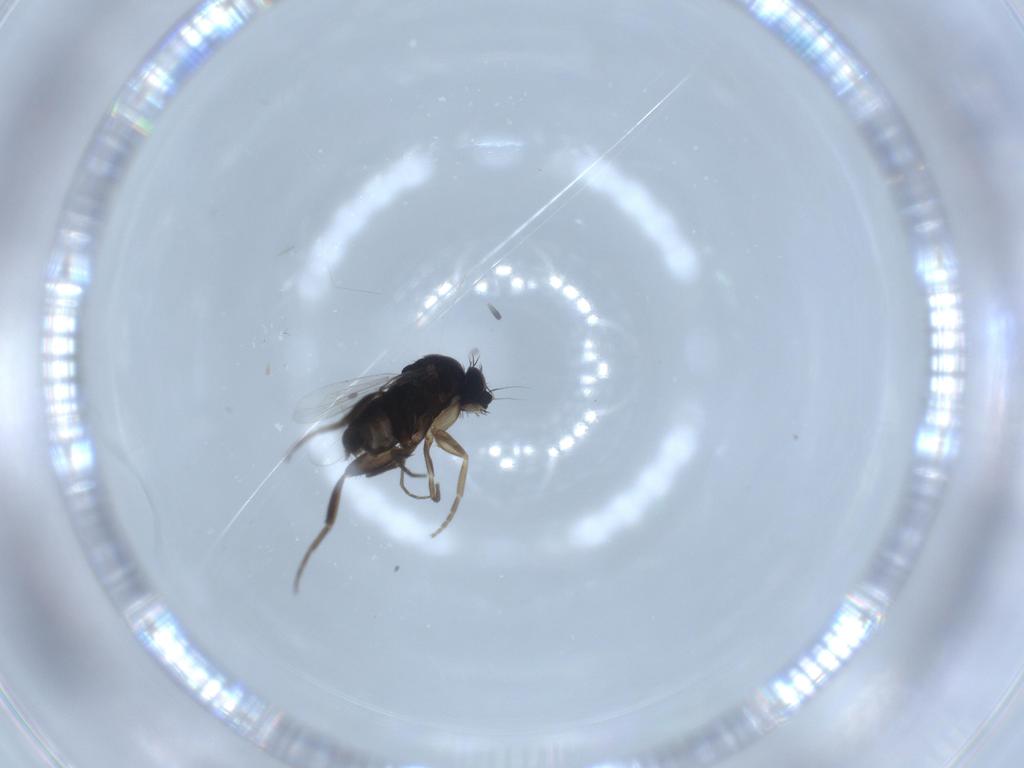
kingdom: Animalia
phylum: Arthropoda
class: Insecta
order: Diptera
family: Phoridae
